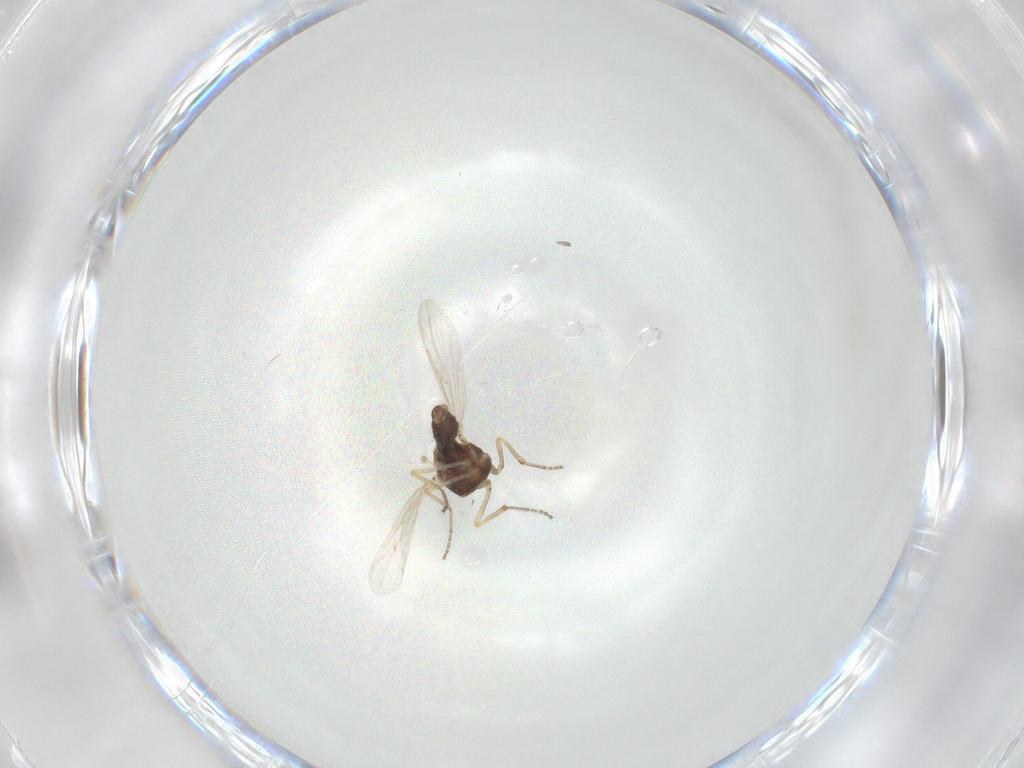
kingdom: Animalia
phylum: Arthropoda
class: Insecta
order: Diptera
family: Ceratopogonidae
